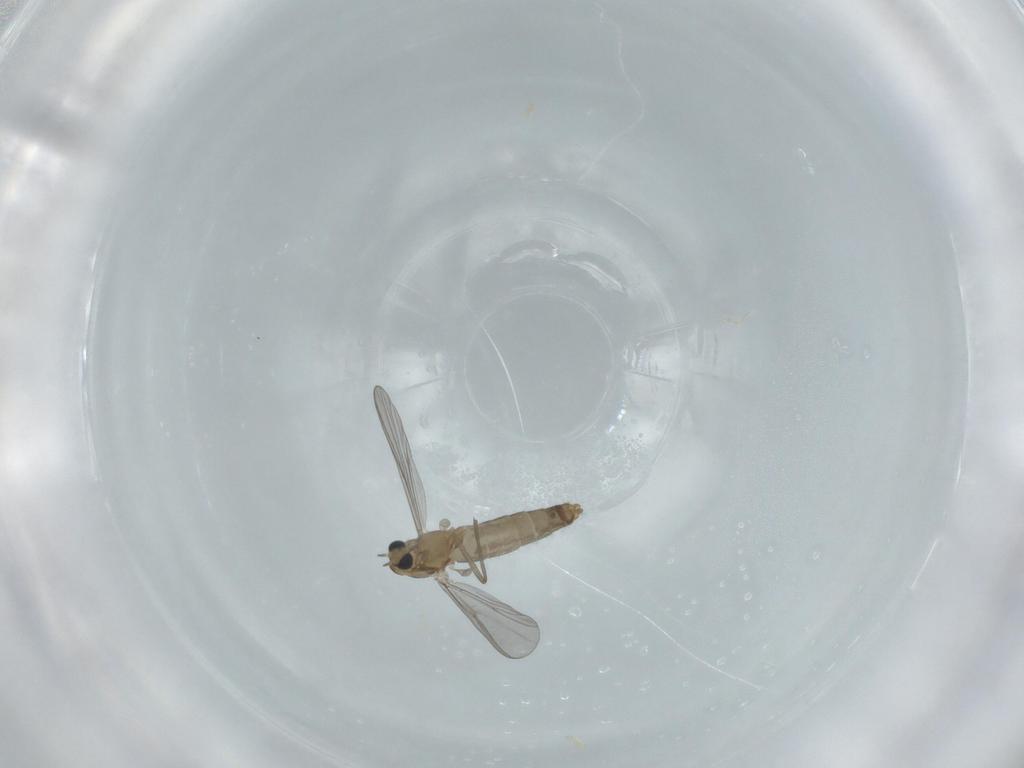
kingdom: Animalia
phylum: Arthropoda
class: Insecta
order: Diptera
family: Chironomidae
